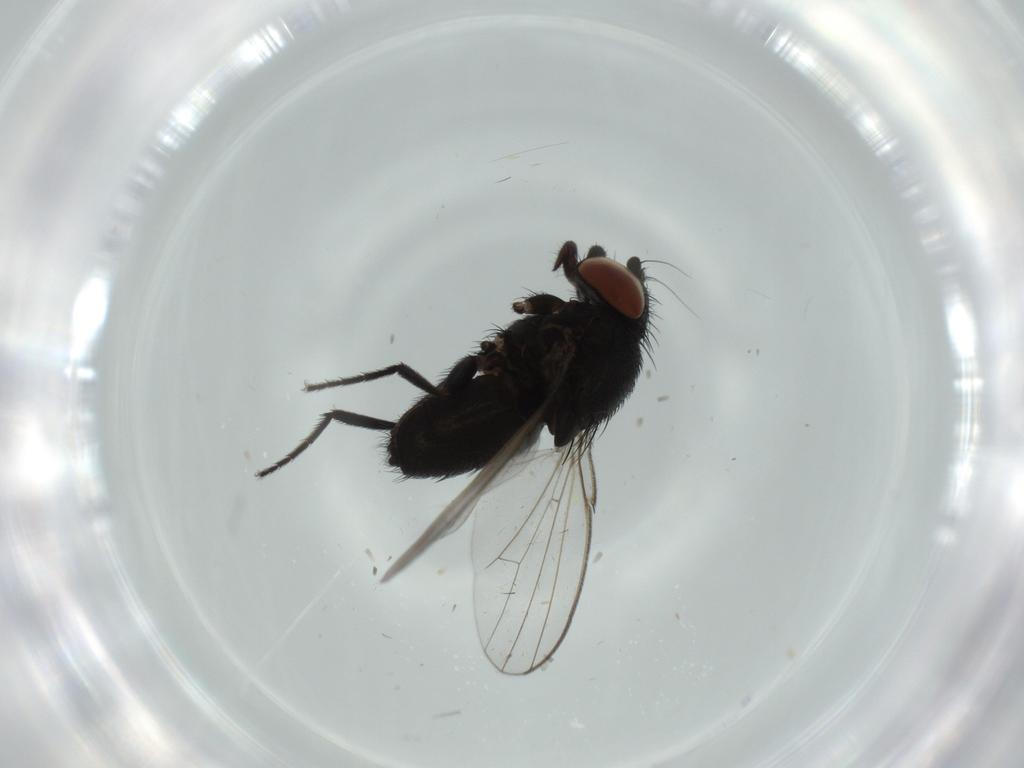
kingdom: Animalia
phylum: Arthropoda
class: Insecta
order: Diptera
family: Milichiidae
